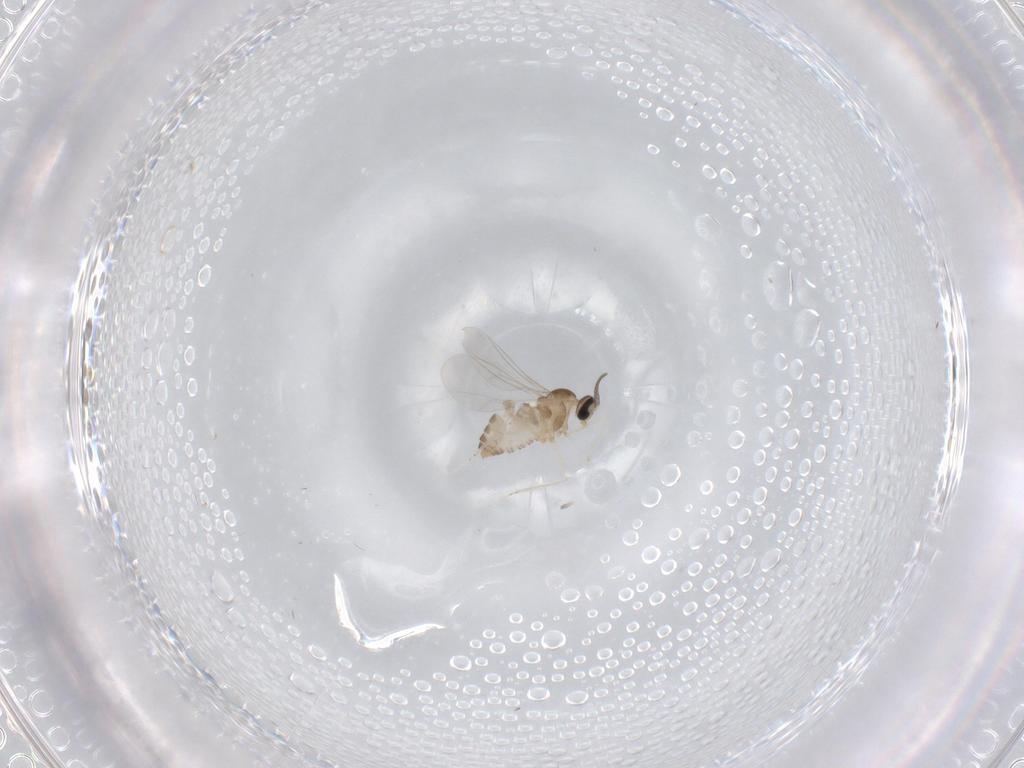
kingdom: Animalia
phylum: Arthropoda
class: Insecta
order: Diptera
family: Cecidomyiidae
